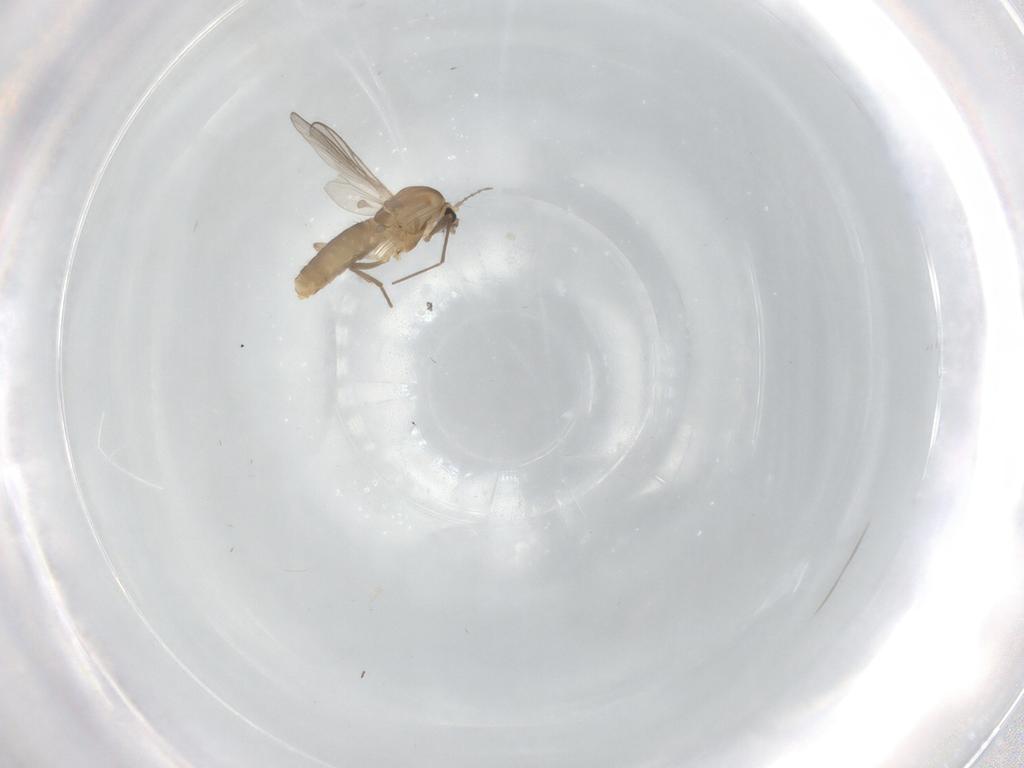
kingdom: Animalia
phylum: Arthropoda
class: Insecta
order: Diptera
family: Chironomidae
